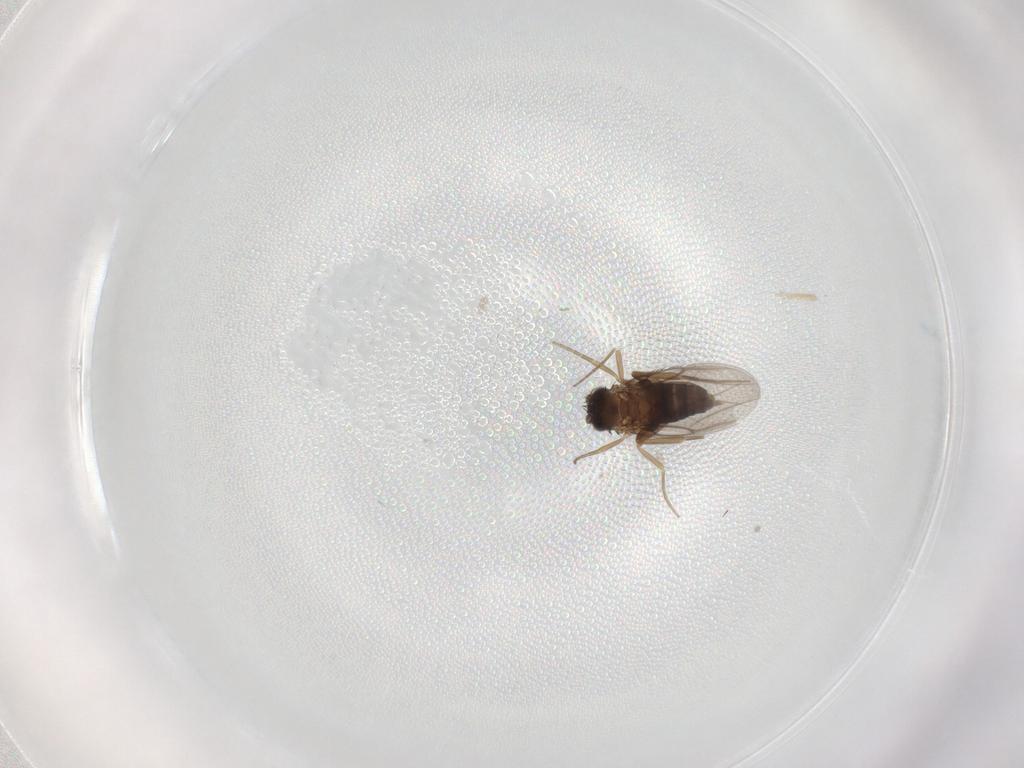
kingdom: Animalia
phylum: Arthropoda
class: Insecta
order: Diptera
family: Phoridae
